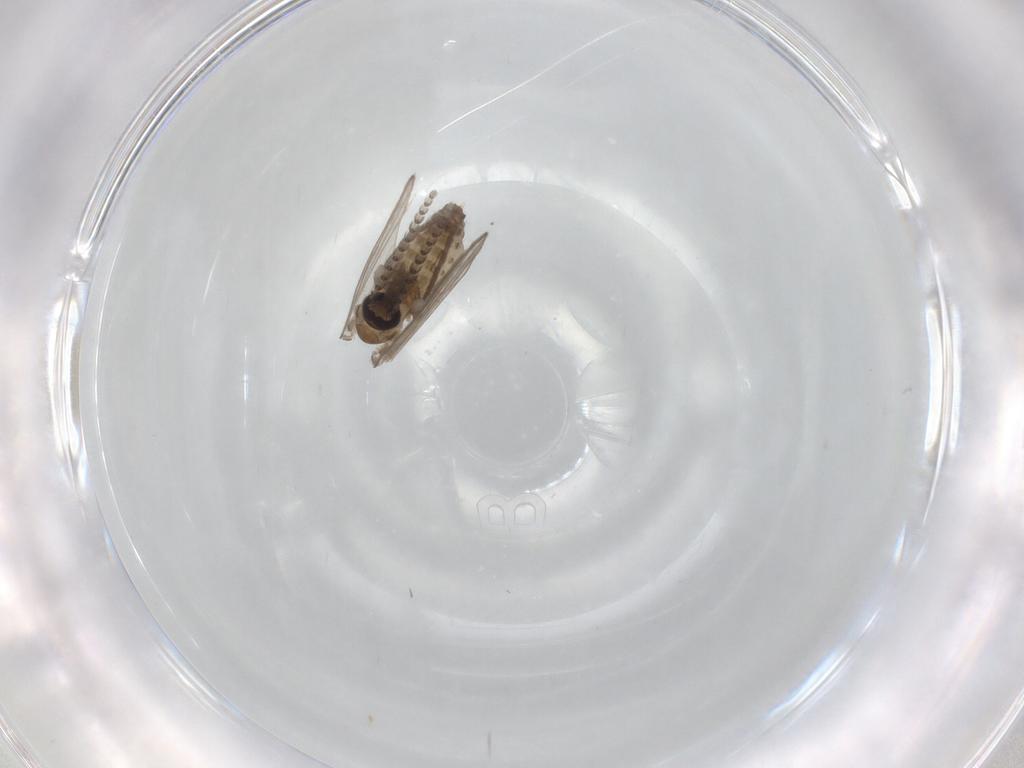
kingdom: Animalia
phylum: Arthropoda
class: Insecta
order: Diptera
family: Psychodidae
